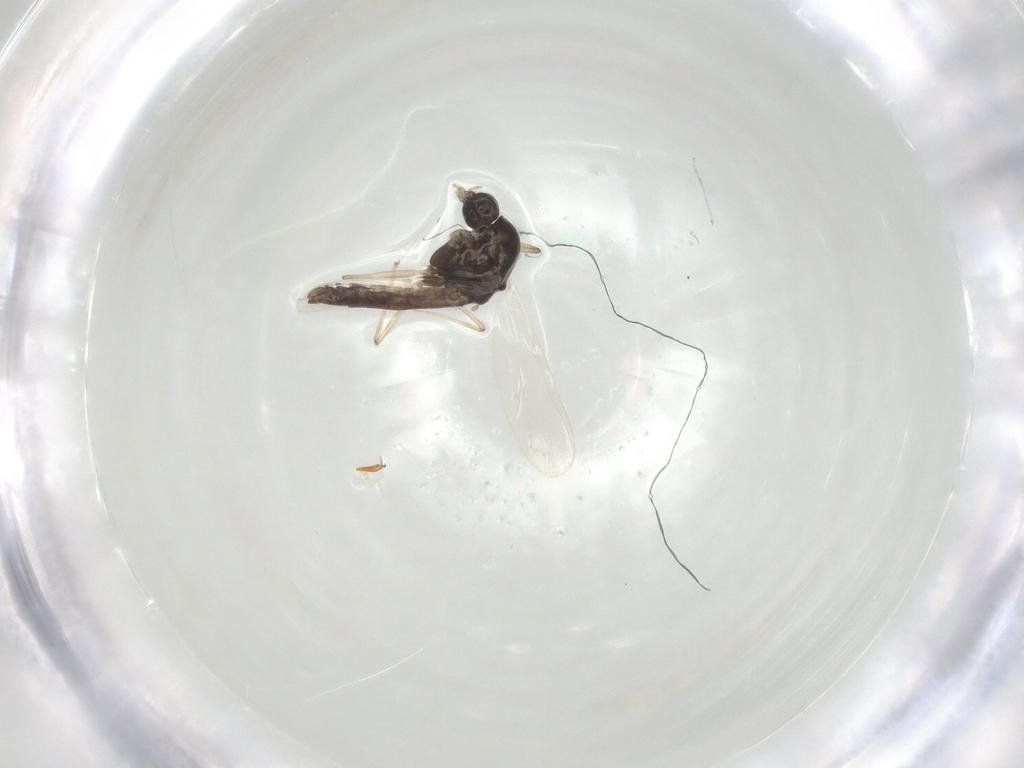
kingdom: Animalia
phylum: Arthropoda
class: Insecta
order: Diptera
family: Chironomidae
